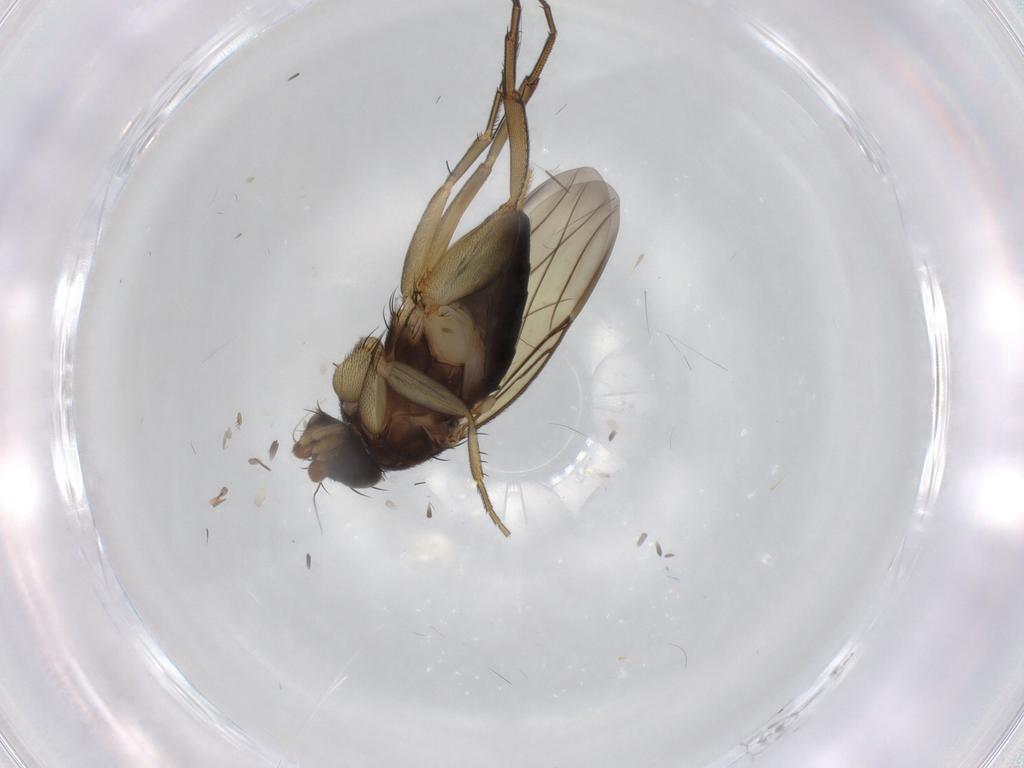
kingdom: Animalia
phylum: Arthropoda
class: Insecta
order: Diptera
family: Phoridae
